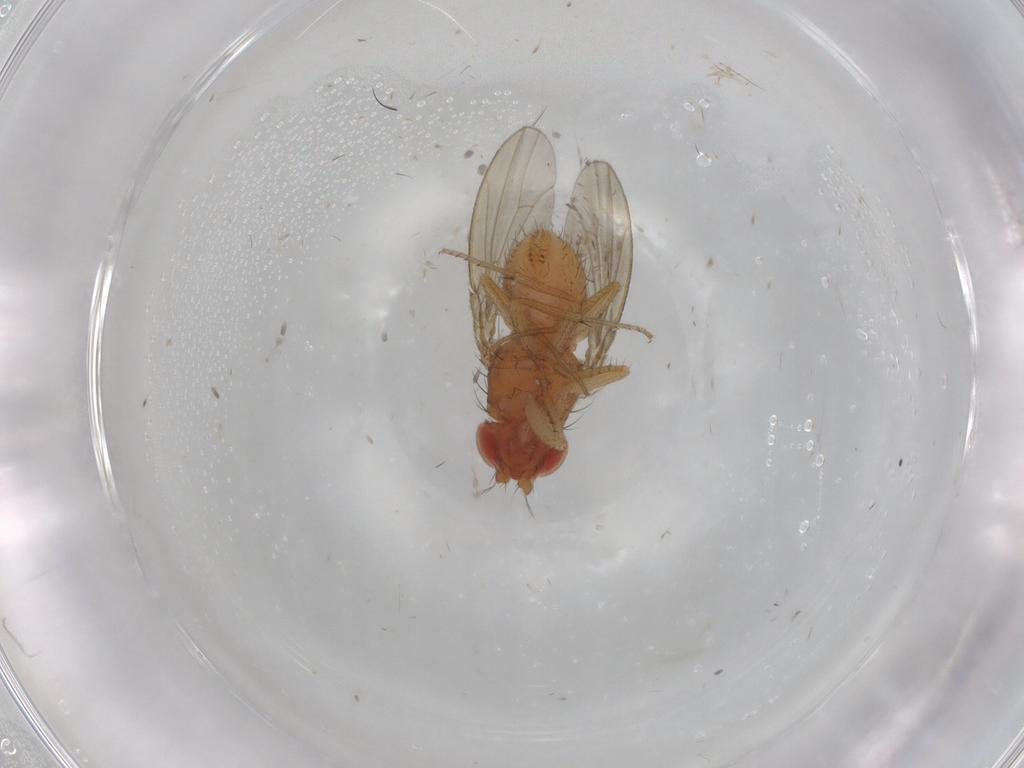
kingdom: Animalia
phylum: Arthropoda
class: Insecta
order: Diptera
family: Drosophilidae
